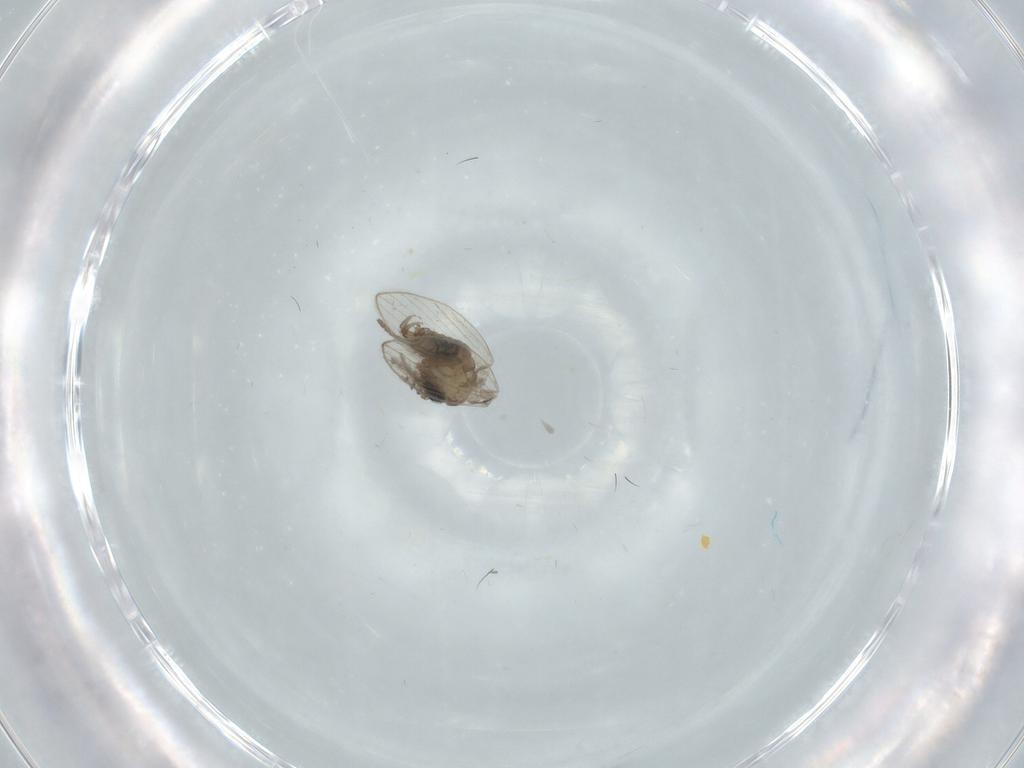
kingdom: Animalia
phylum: Arthropoda
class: Insecta
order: Diptera
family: Psychodidae
